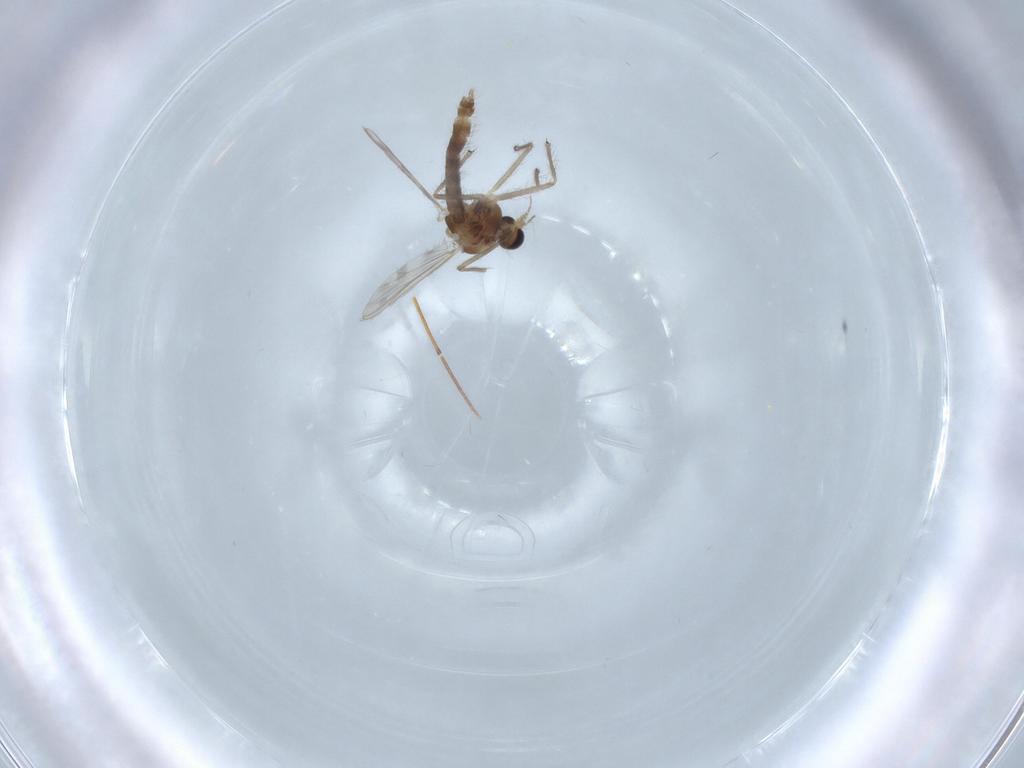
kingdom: Animalia
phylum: Arthropoda
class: Insecta
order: Diptera
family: Chironomidae
